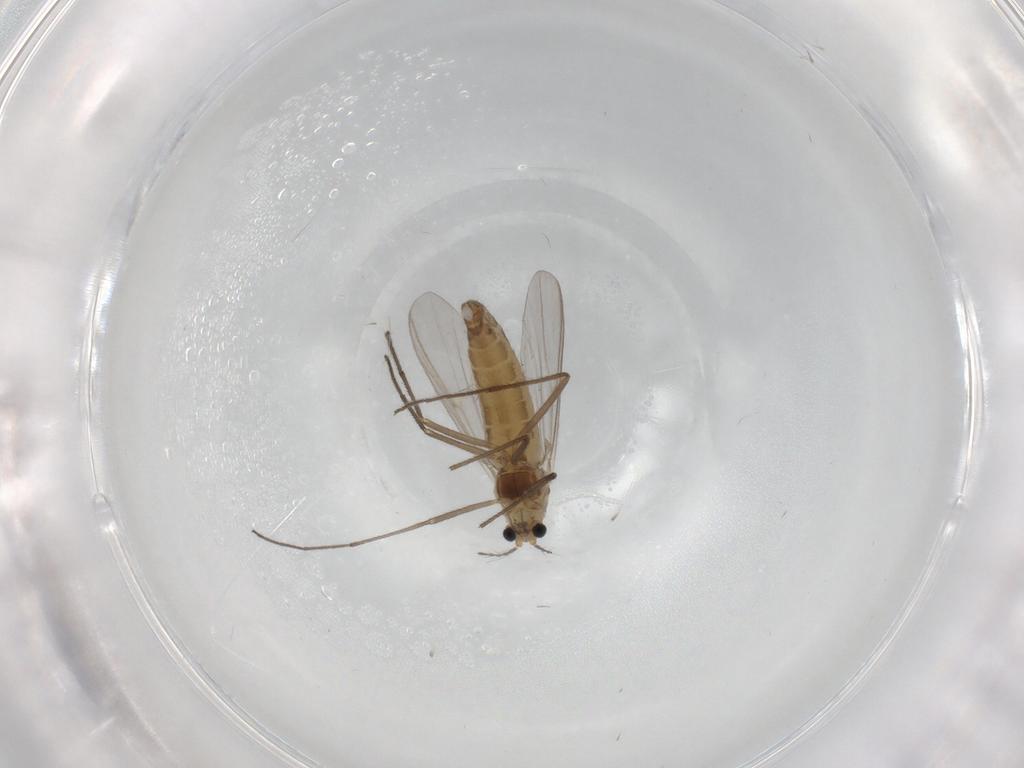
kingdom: Animalia
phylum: Arthropoda
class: Insecta
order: Diptera
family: Chironomidae
